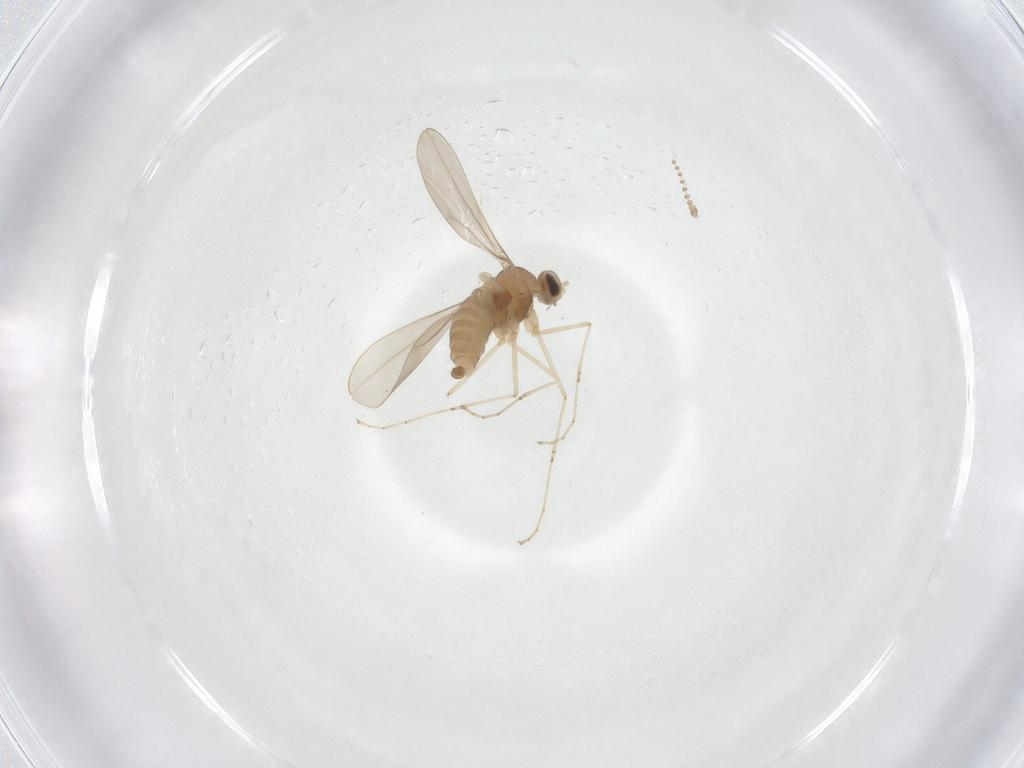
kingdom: Animalia
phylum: Arthropoda
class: Insecta
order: Diptera
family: Cecidomyiidae
